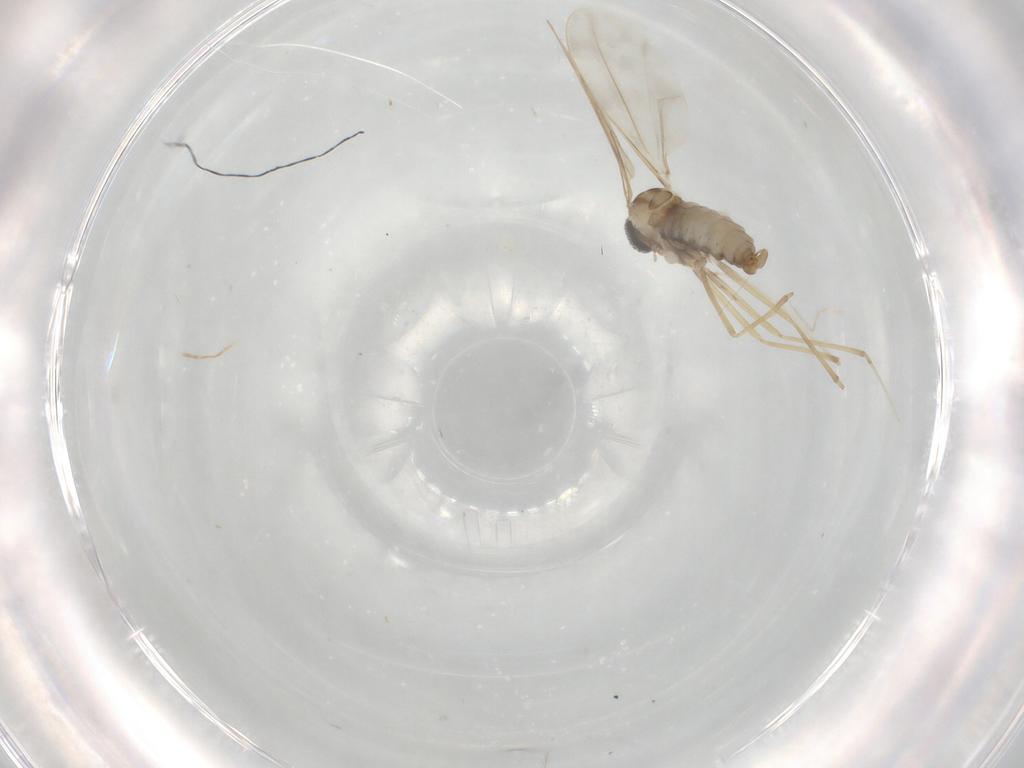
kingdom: Animalia
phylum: Arthropoda
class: Insecta
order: Diptera
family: Cecidomyiidae
